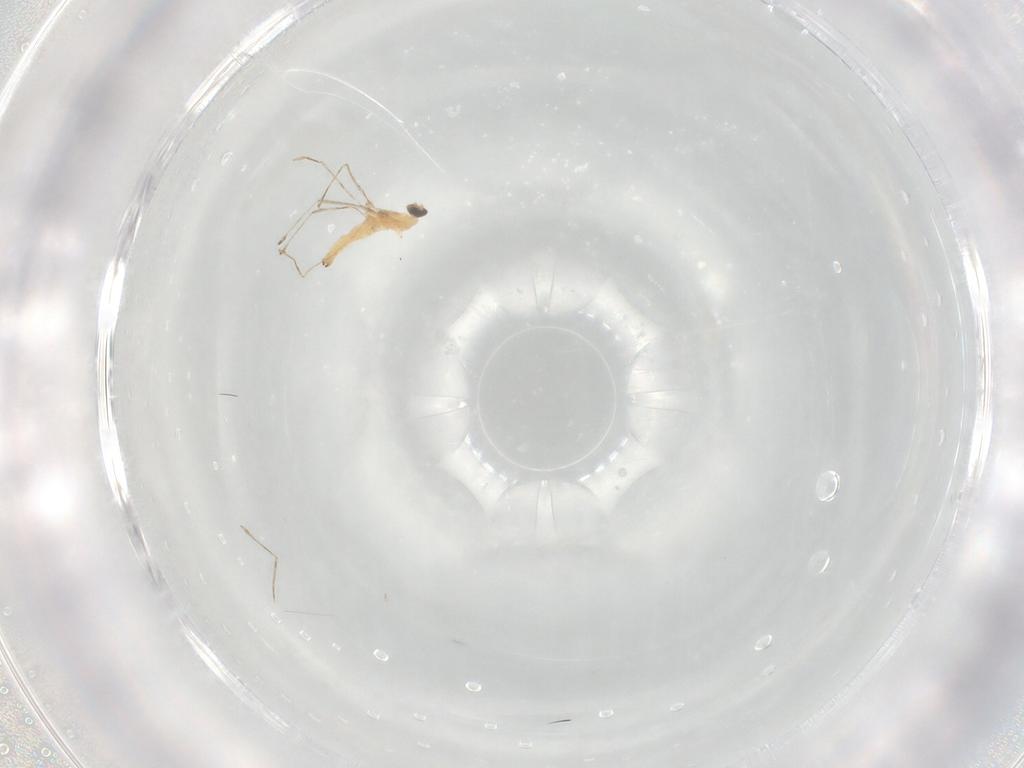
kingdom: Animalia
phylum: Arthropoda
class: Insecta
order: Diptera
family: Cecidomyiidae
